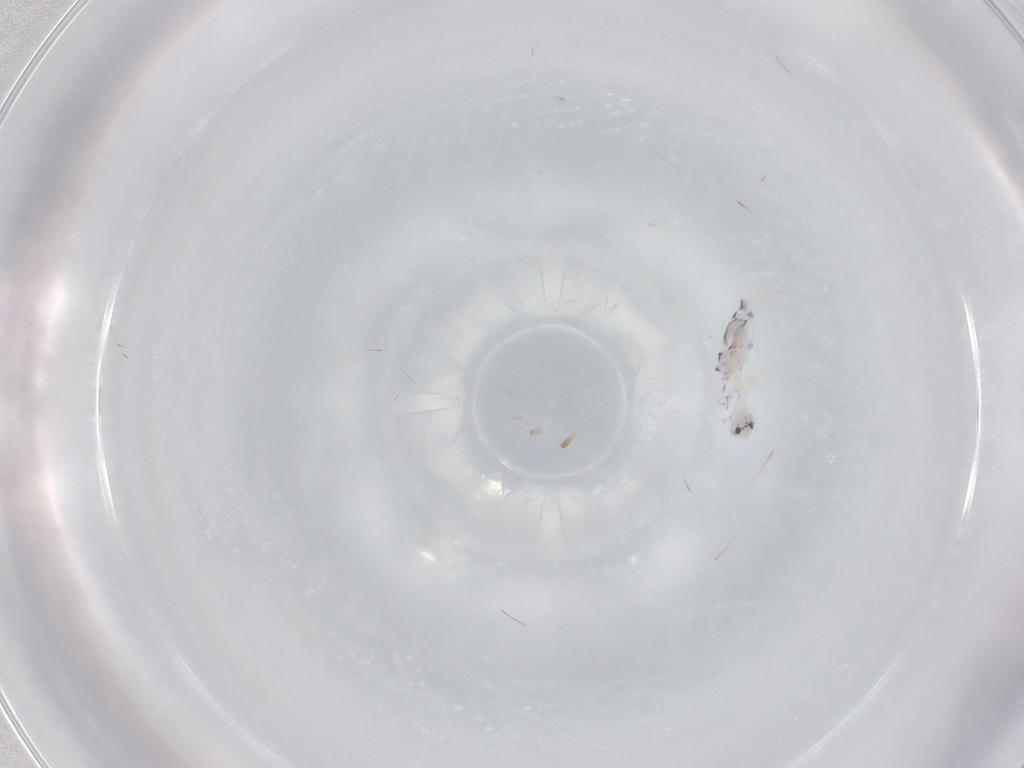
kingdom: Animalia
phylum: Arthropoda
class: Collembola
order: Entomobryomorpha
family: Entomobryidae
